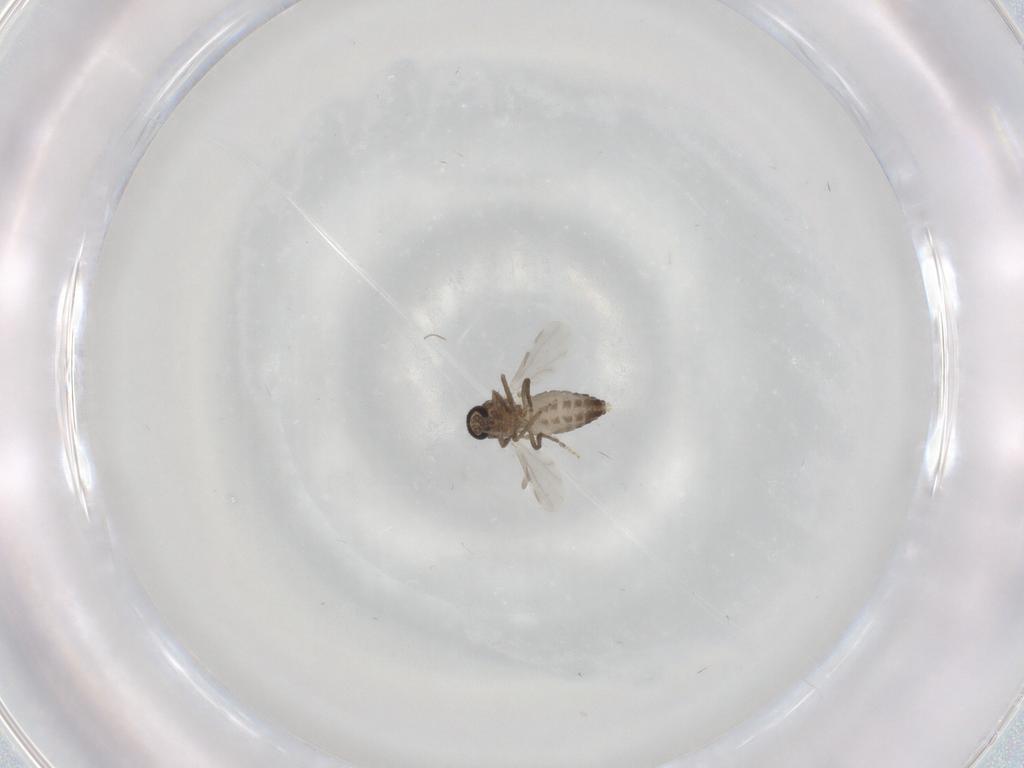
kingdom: Animalia
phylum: Arthropoda
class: Insecta
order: Diptera
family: Ceratopogonidae
